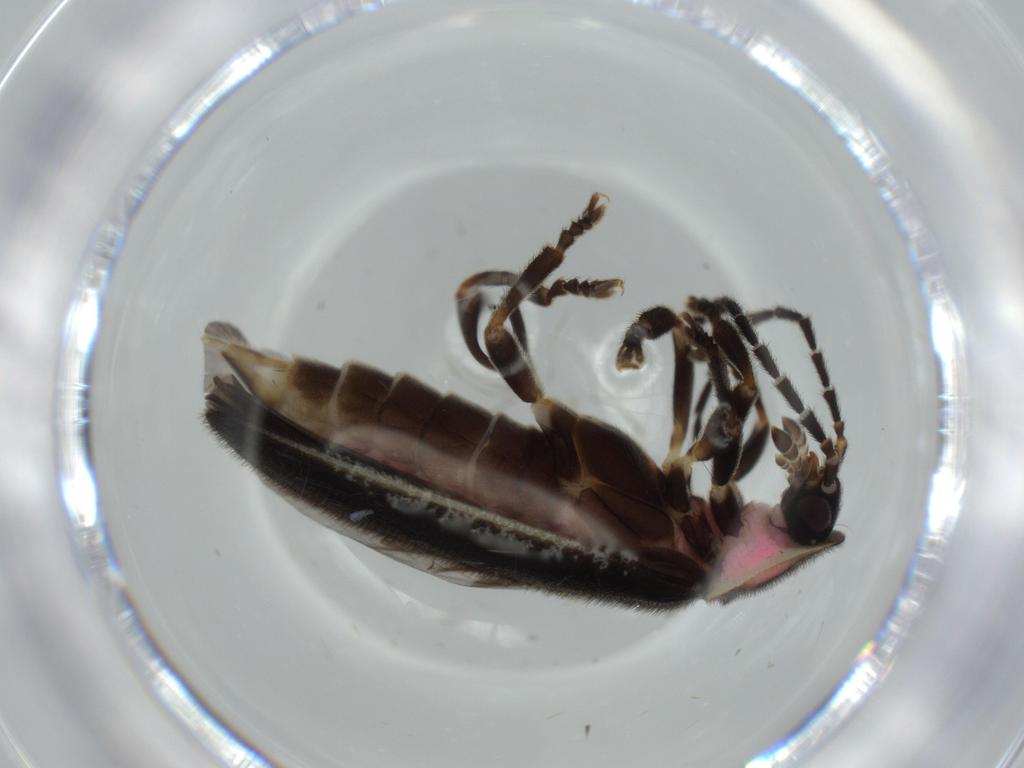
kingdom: Animalia
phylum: Arthropoda
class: Insecta
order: Coleoptera
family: Lampyridae
